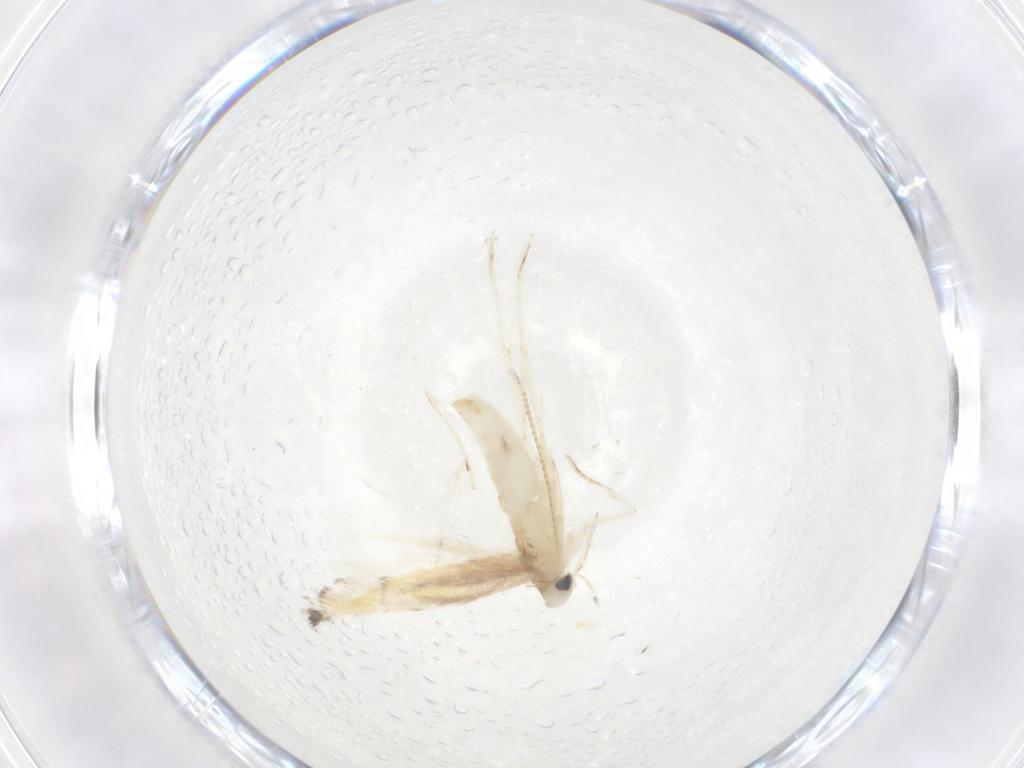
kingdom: Animalia
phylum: Arthropoda
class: Insecta
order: Lepidoptera
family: Gracillariidae
